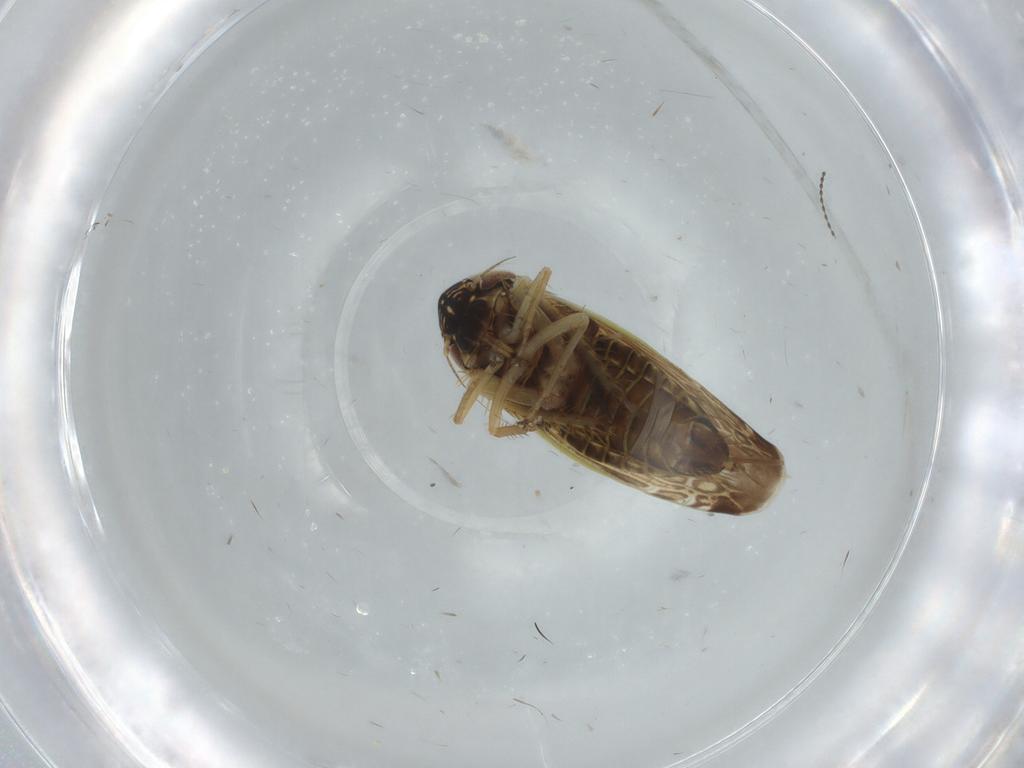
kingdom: Animalia
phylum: Arthropoda
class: Insecta
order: Hemiptera
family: Cicadellidae
